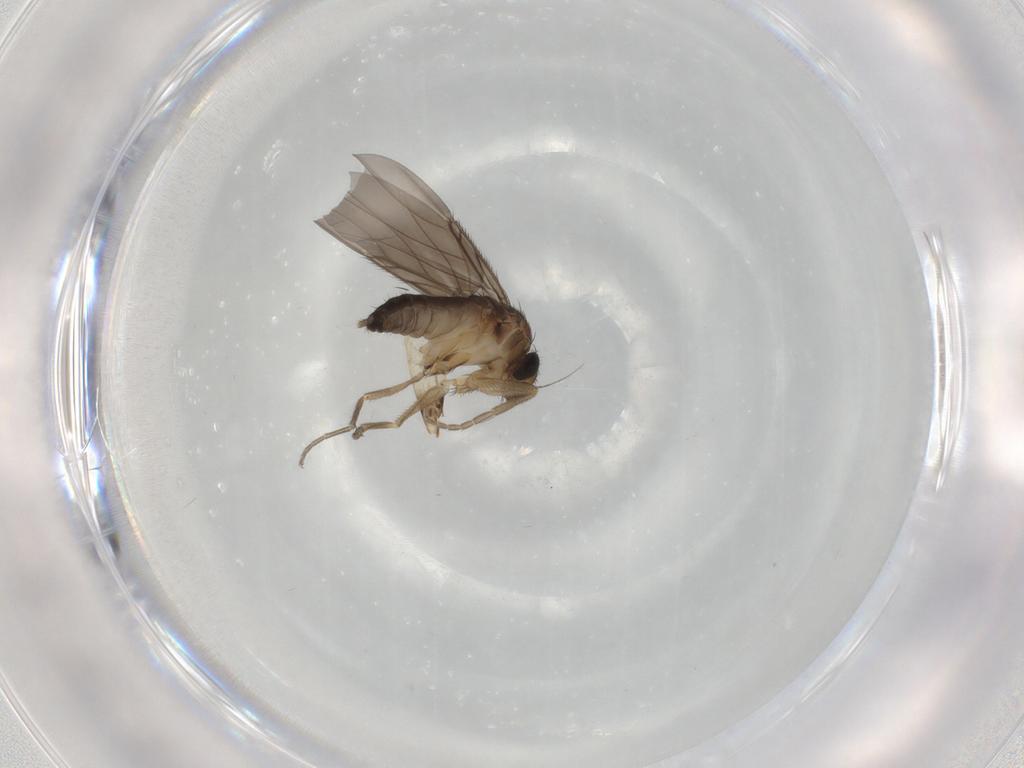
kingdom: Animalia
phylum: Arthropoda
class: Insecta
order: Diptera
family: Phoridae
